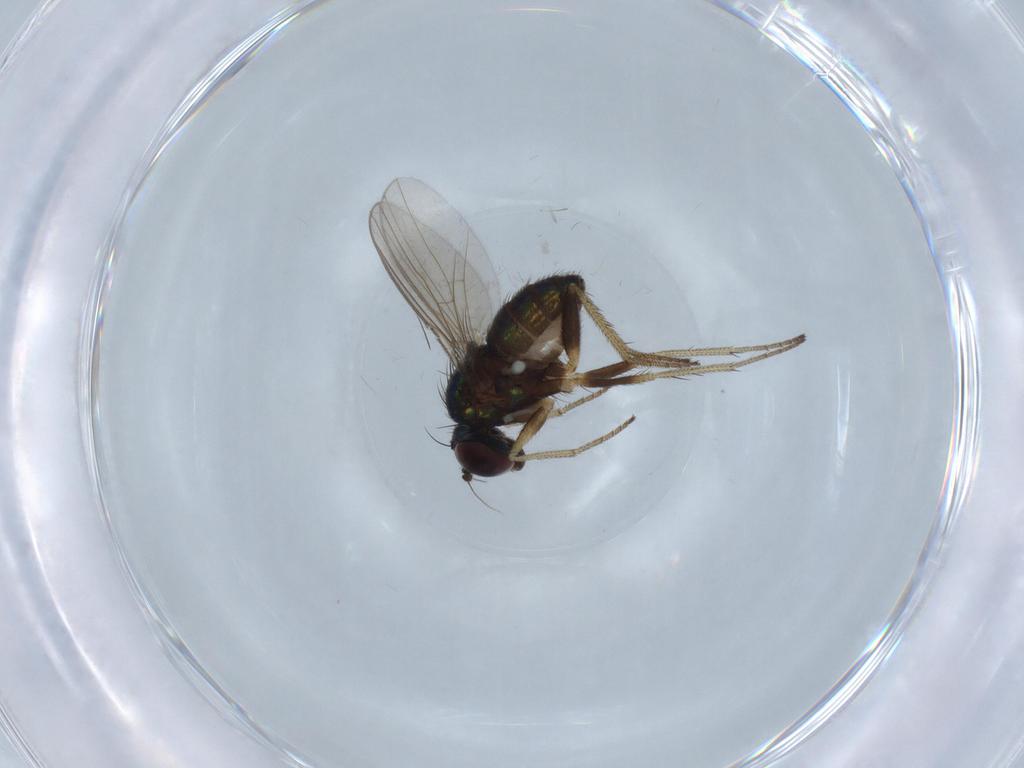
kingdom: Animalia
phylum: Arthropoda
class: Insecta
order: Diptera
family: Dolichopodidae
